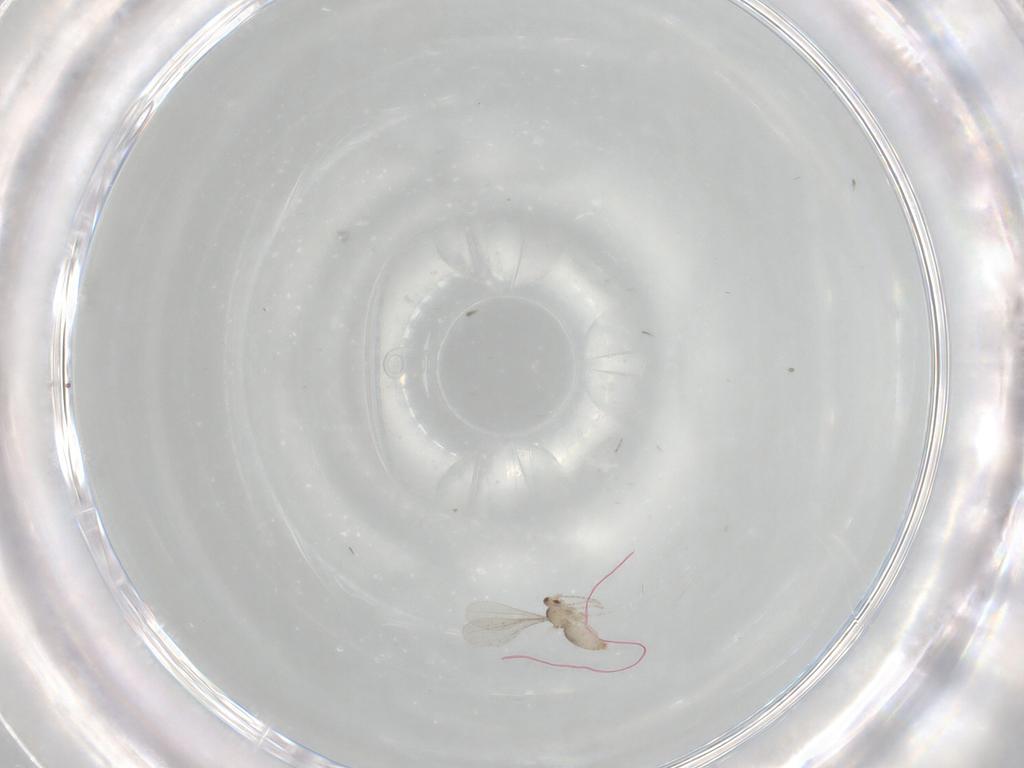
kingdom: Animalia
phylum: Arthropoda
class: Insecta
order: Diptera
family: Cecidomyiidae
